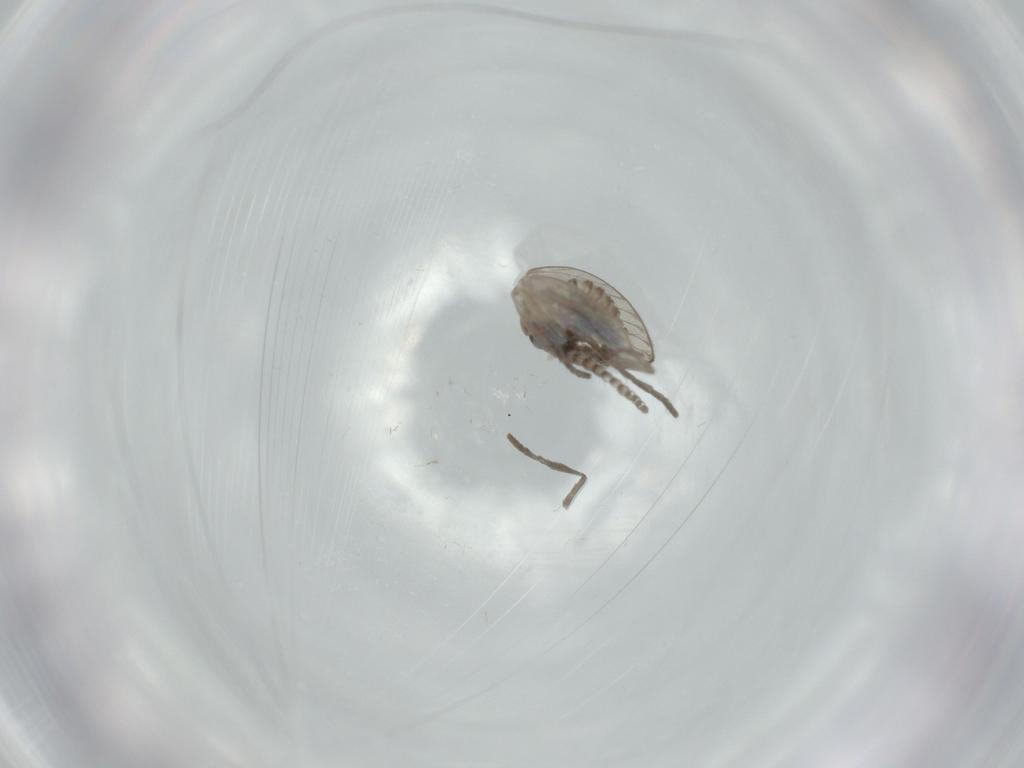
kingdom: Animalia
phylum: Arthropoda
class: Insecta
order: Diptera
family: Psychodidae
